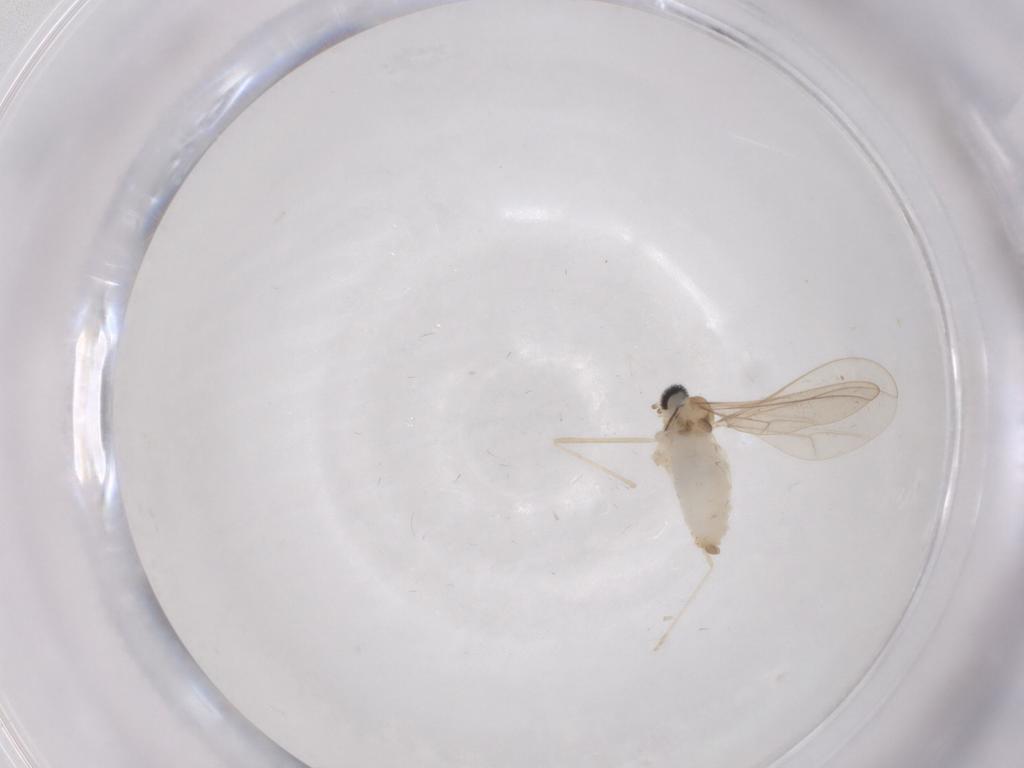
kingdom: Animalia
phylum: Arthropoda
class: Insecta
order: Diptera
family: Cecidomyiidae
